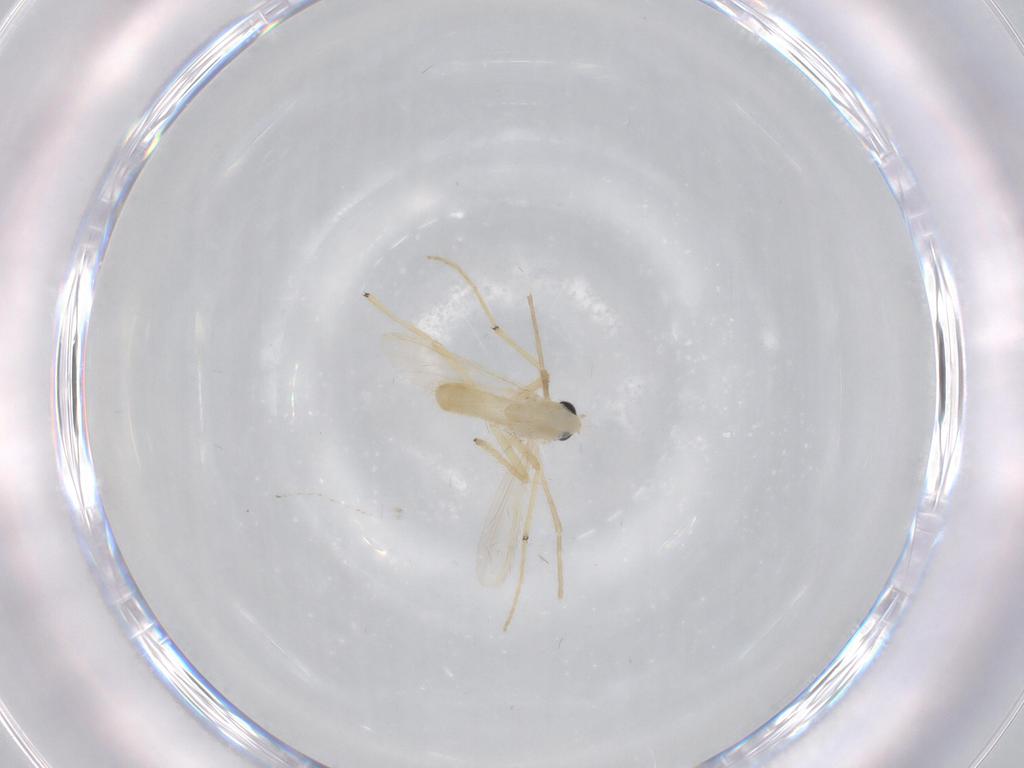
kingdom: Animalia
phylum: Arthropoda
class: Insecta
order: Diptera
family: Chironomidae
